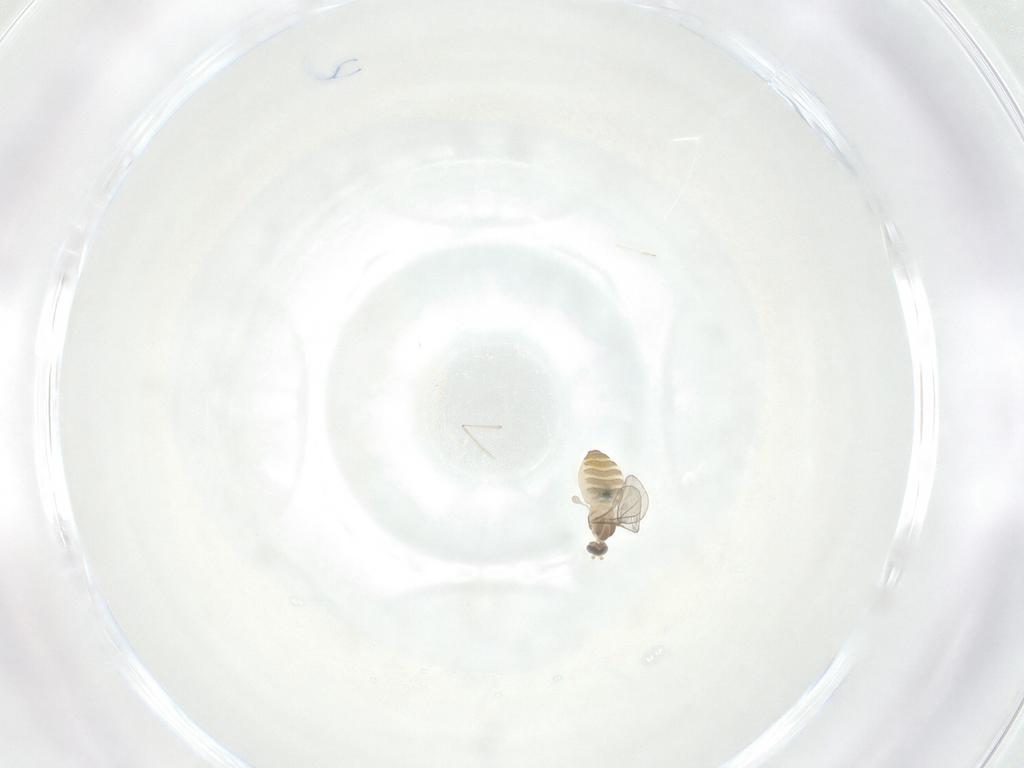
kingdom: Animalia
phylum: Arthropoda
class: Insecta
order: Diptera
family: Cecidomyiidae
